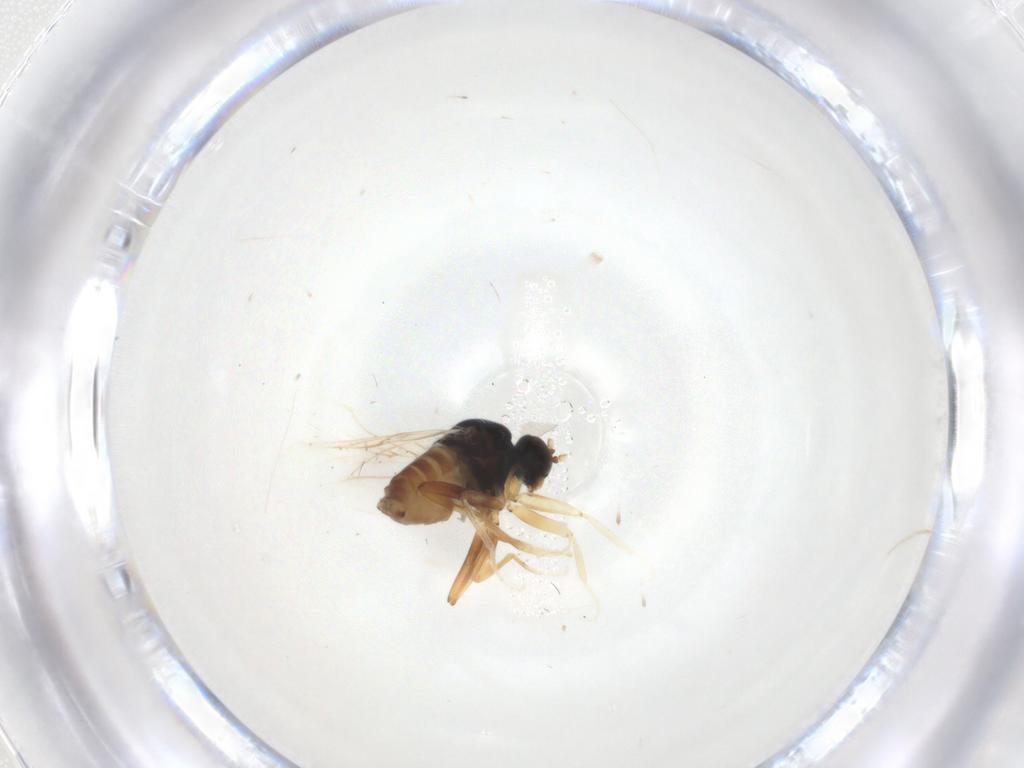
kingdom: Animalia
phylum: Arthropoda
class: Insecta
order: Diptera
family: Hybotidae
